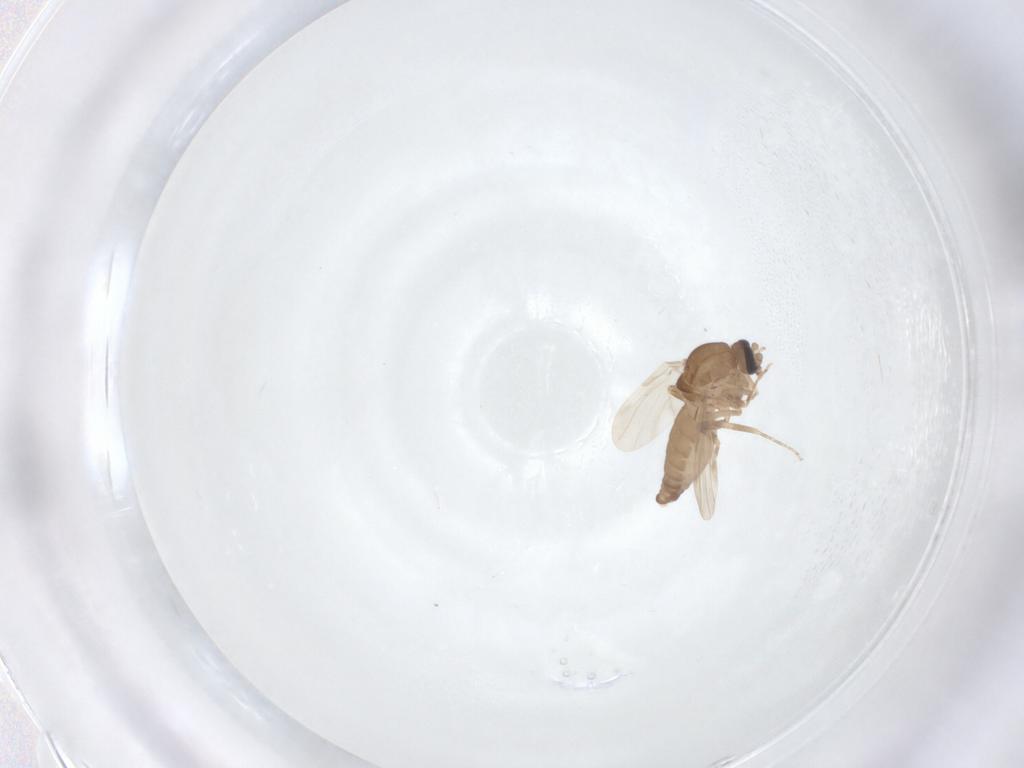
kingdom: Animalia
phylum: Arthropoda
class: Insecta
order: Diptera
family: Ceratopogonidae
